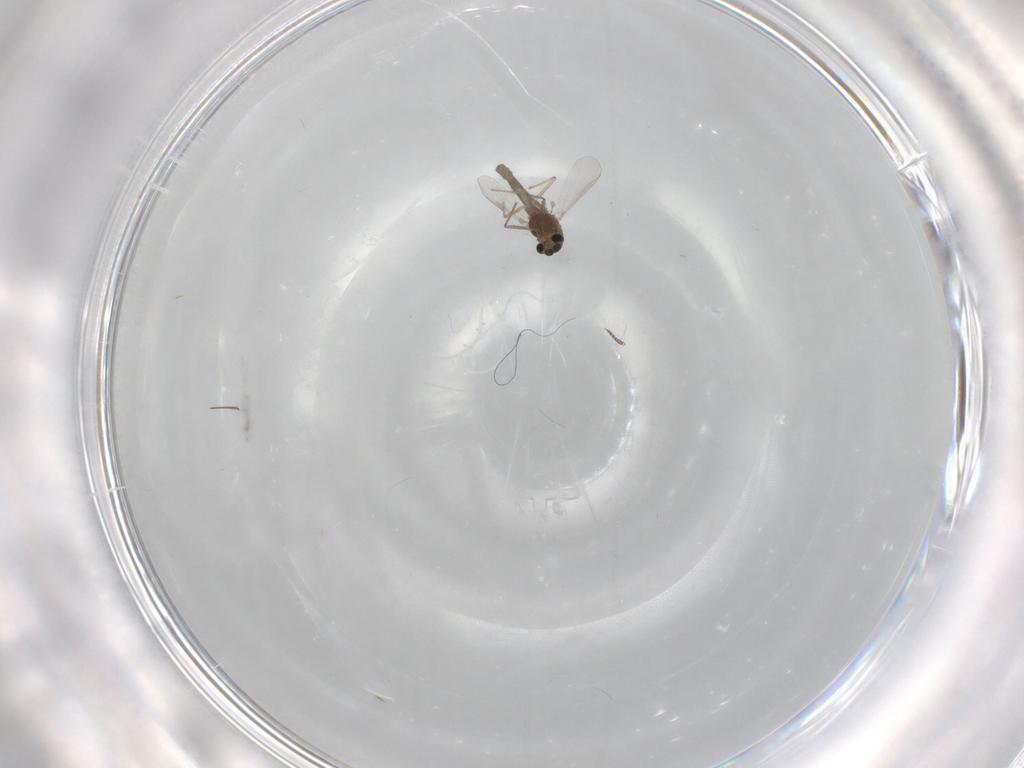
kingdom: Animalia
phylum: Arthropoda
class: Insecta
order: Diptera
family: Chironomidae
